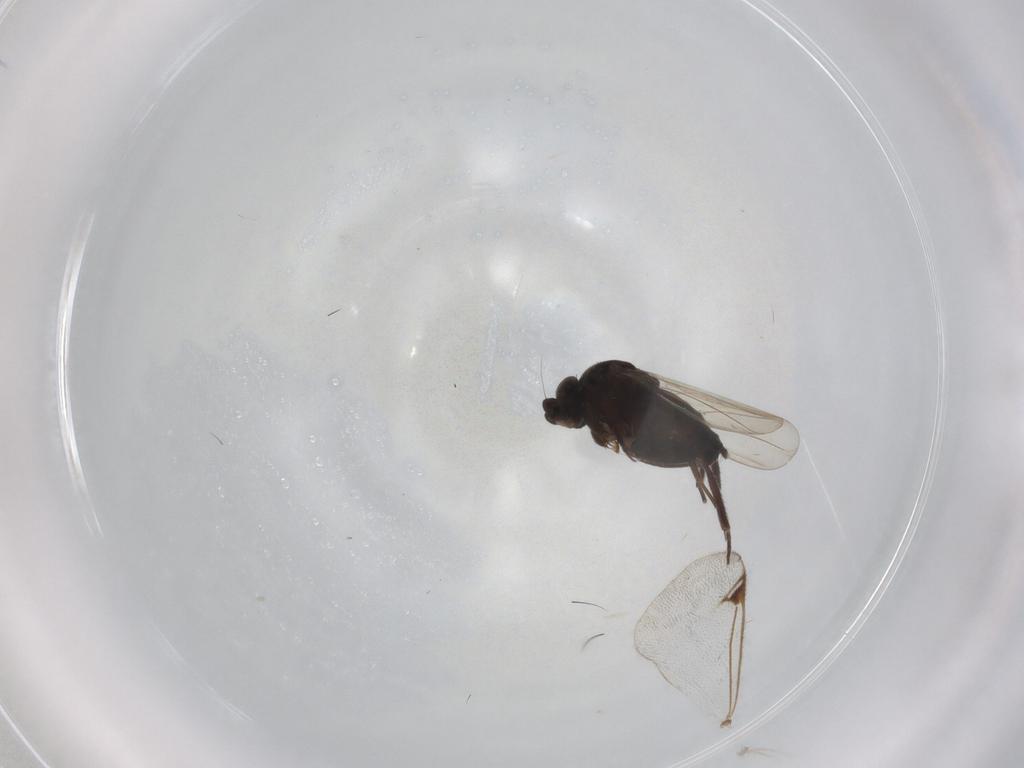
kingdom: Animalia
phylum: Arthropoda
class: Insecta
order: Diptera
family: Phoridae
